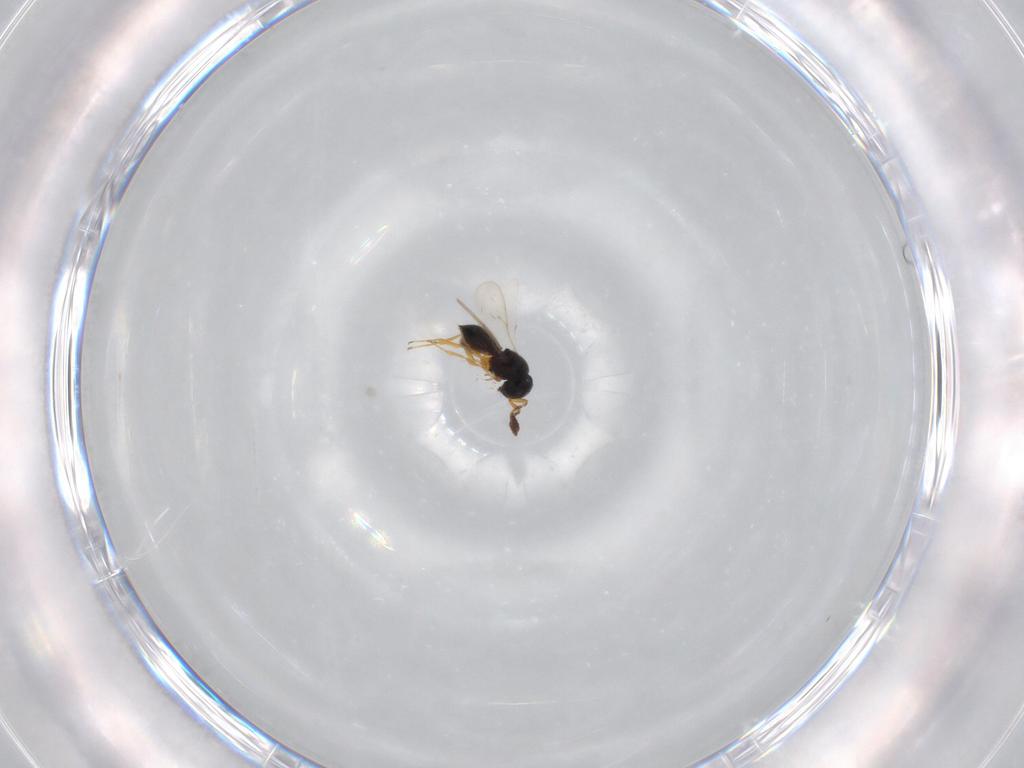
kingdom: Animalia
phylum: Arthropoda
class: Insecta
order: Hymenoptera
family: Scelionidae
